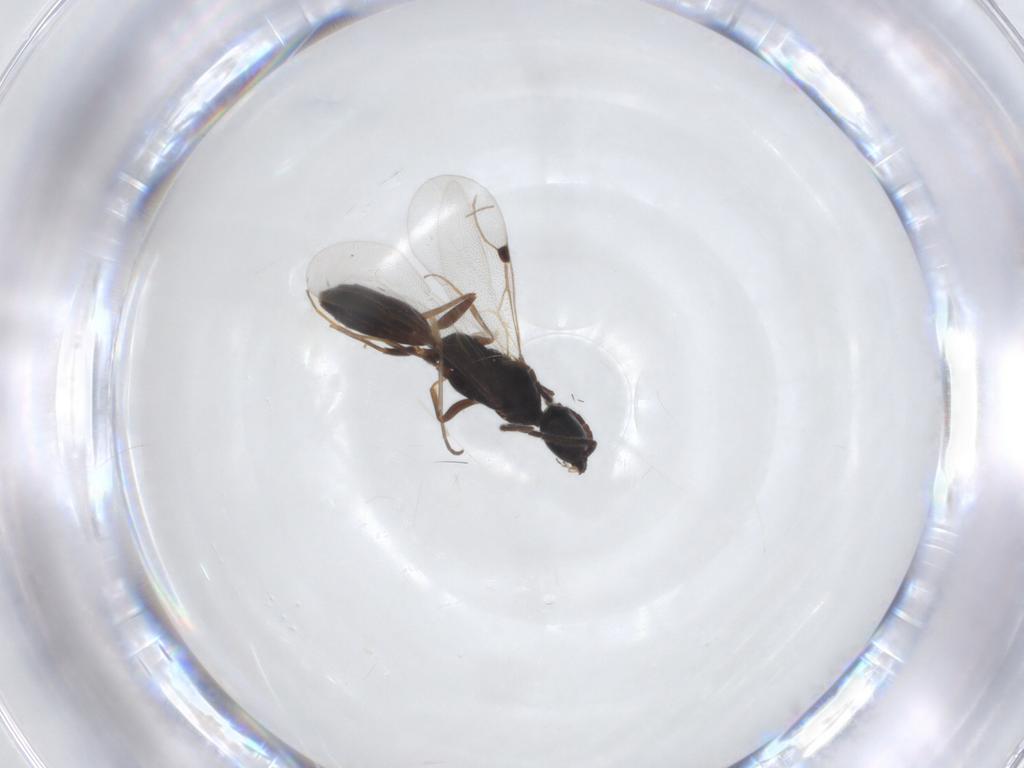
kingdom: Animalia
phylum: Arthropoda
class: Insecta
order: Hymenoptera
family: Bethylidae
